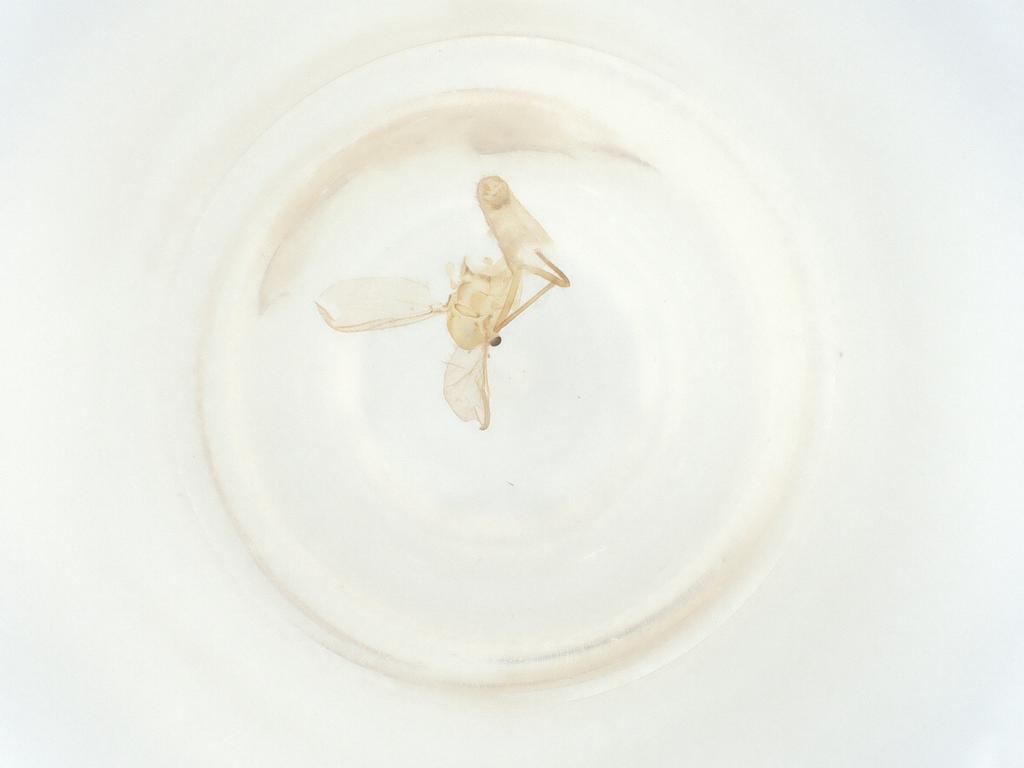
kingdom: Animalia
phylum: Arthropoda
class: Insecta
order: Diptera
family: Chironomidae
